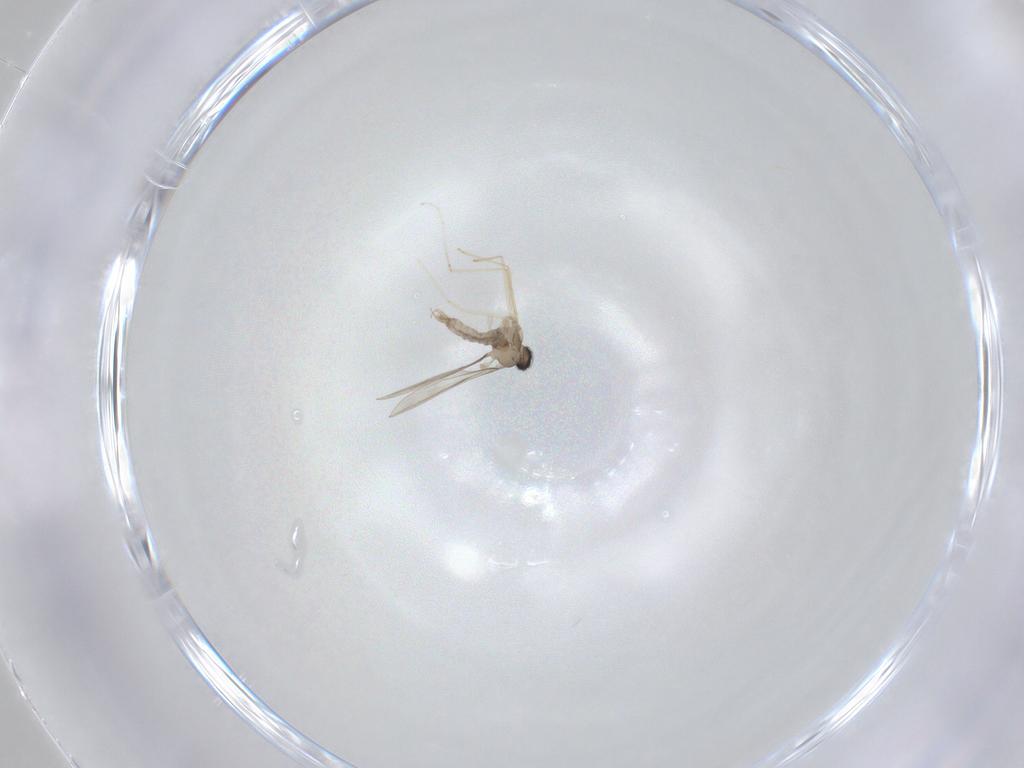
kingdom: Animalia
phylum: Arthropoda
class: Insecta
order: Diptera
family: Cecidomyiidae
